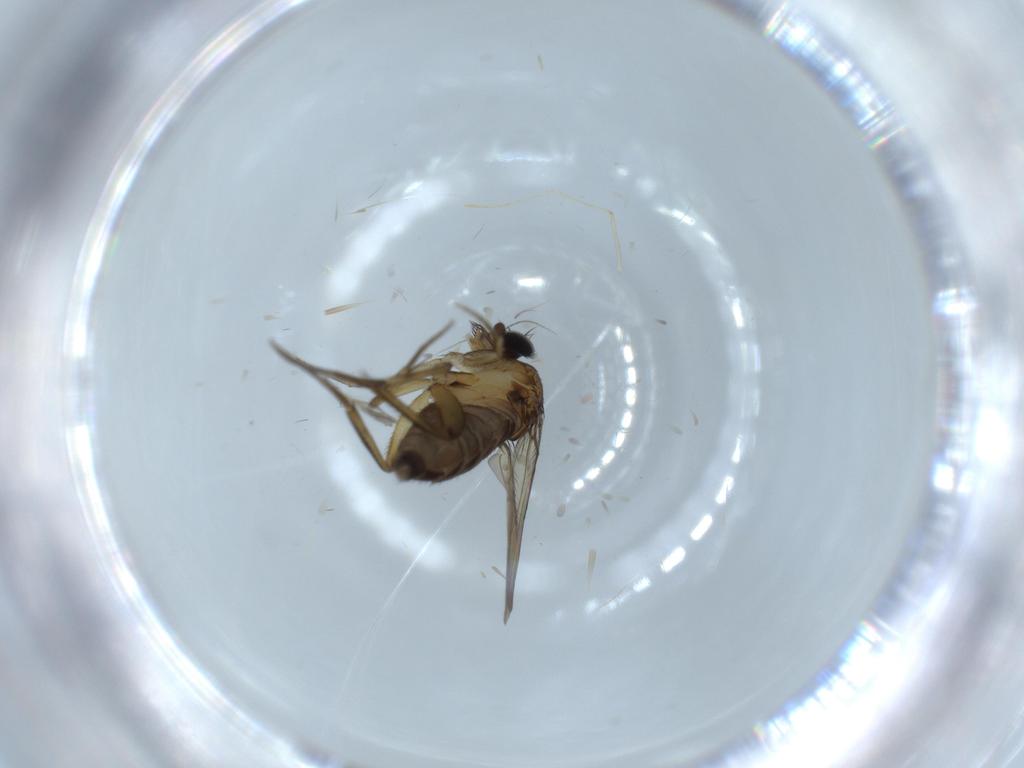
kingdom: Animalia
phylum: Arthropoda
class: Insecta
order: Diptera
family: Ceratopogonidae
